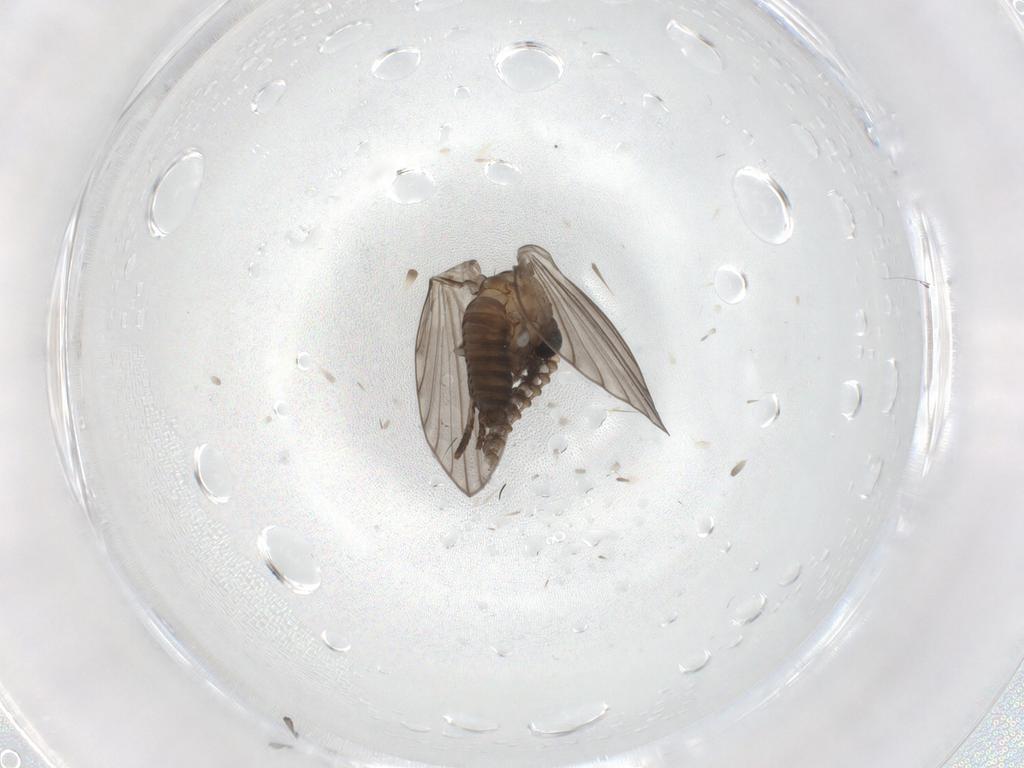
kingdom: Animalia
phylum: Arthropoda
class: Insecta
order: Diptera
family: Psychodidae
